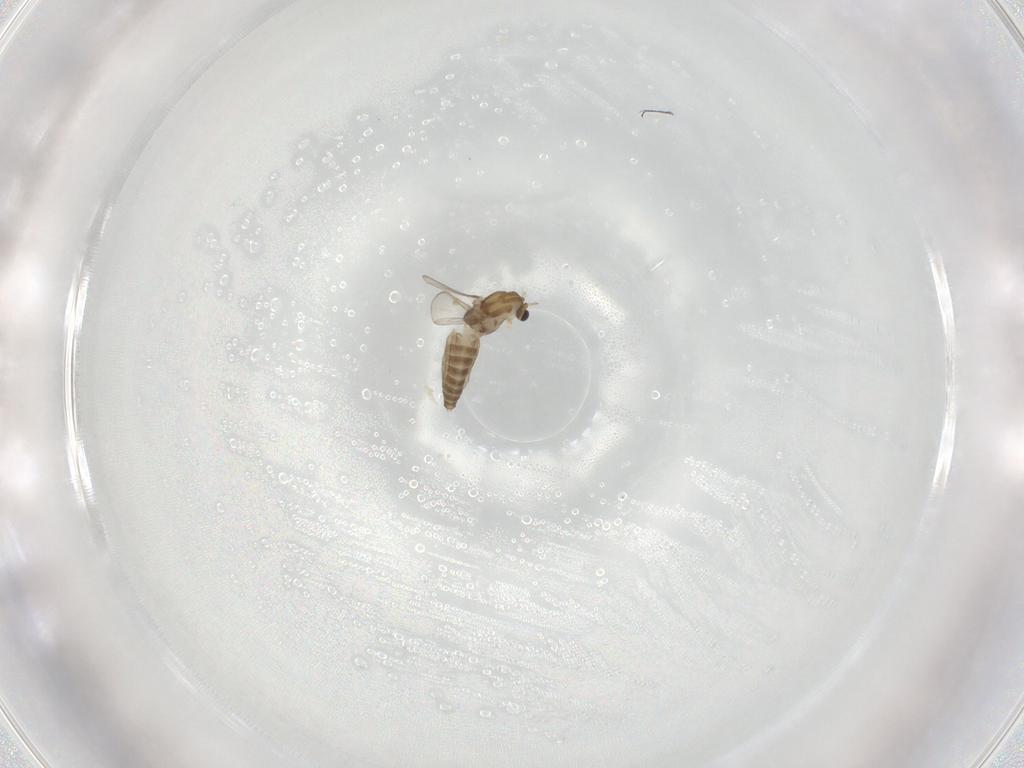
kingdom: Animalia
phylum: Arthropoda
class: Insecta
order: Diptera
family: Chironomidae
